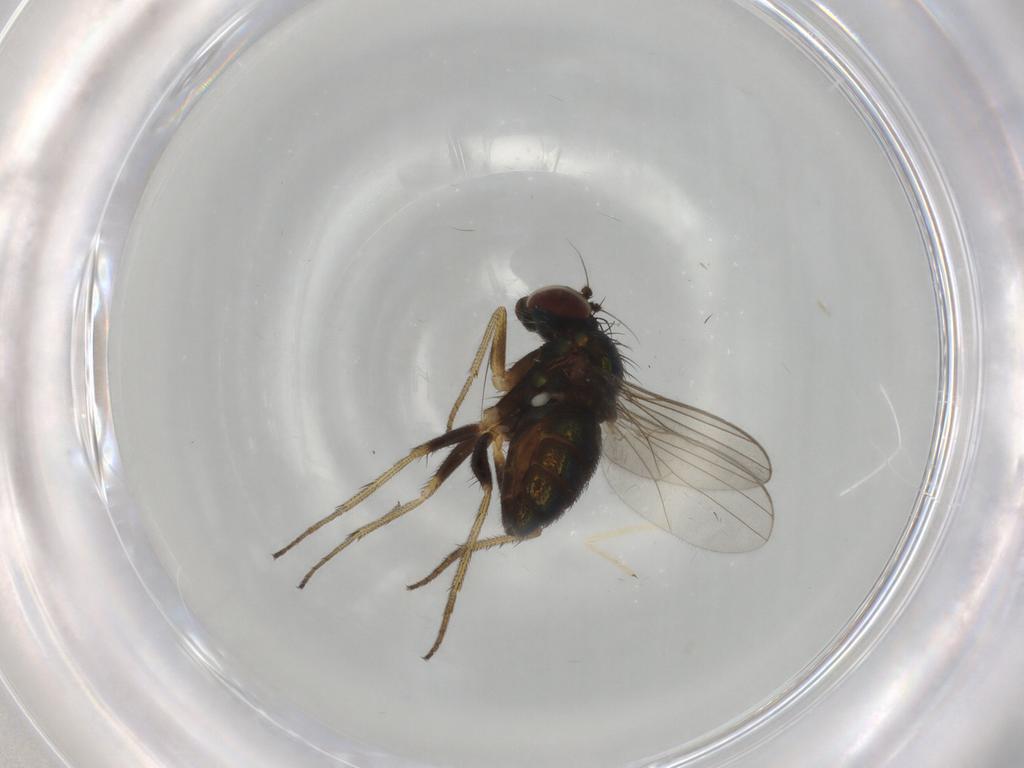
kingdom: Animalia
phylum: Arthropoda
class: Insecta
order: Diptera
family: Chironomidae
